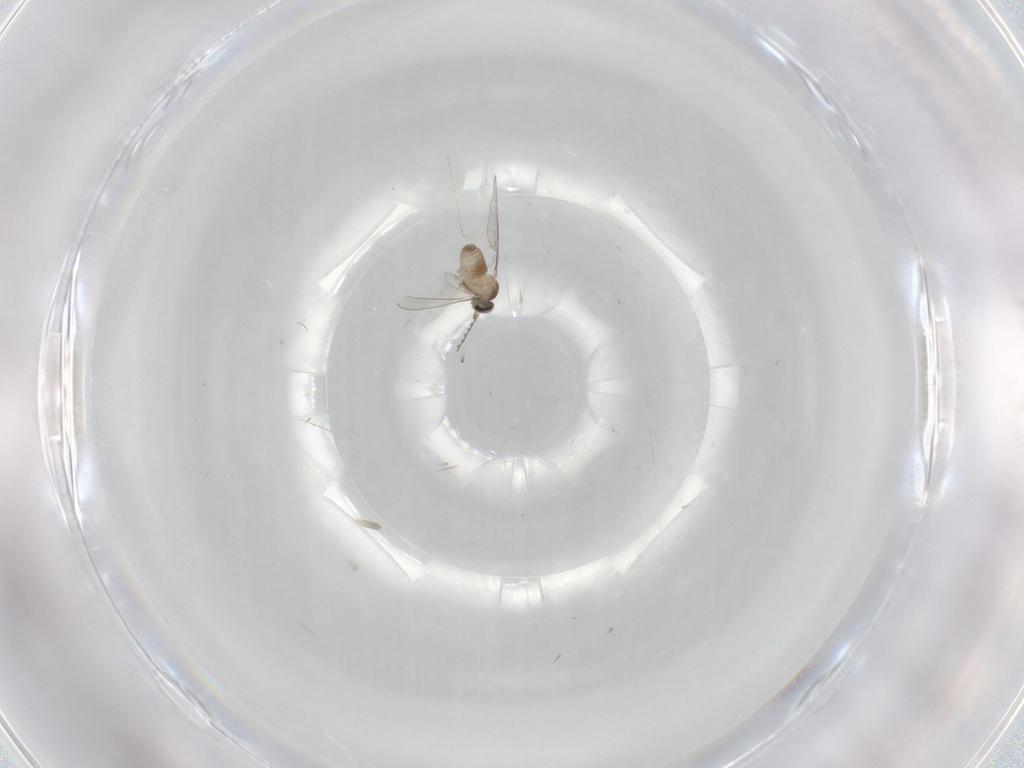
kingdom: Animalia
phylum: Arthropoda
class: Insecta
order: Diptera
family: Cecidomyiidae
